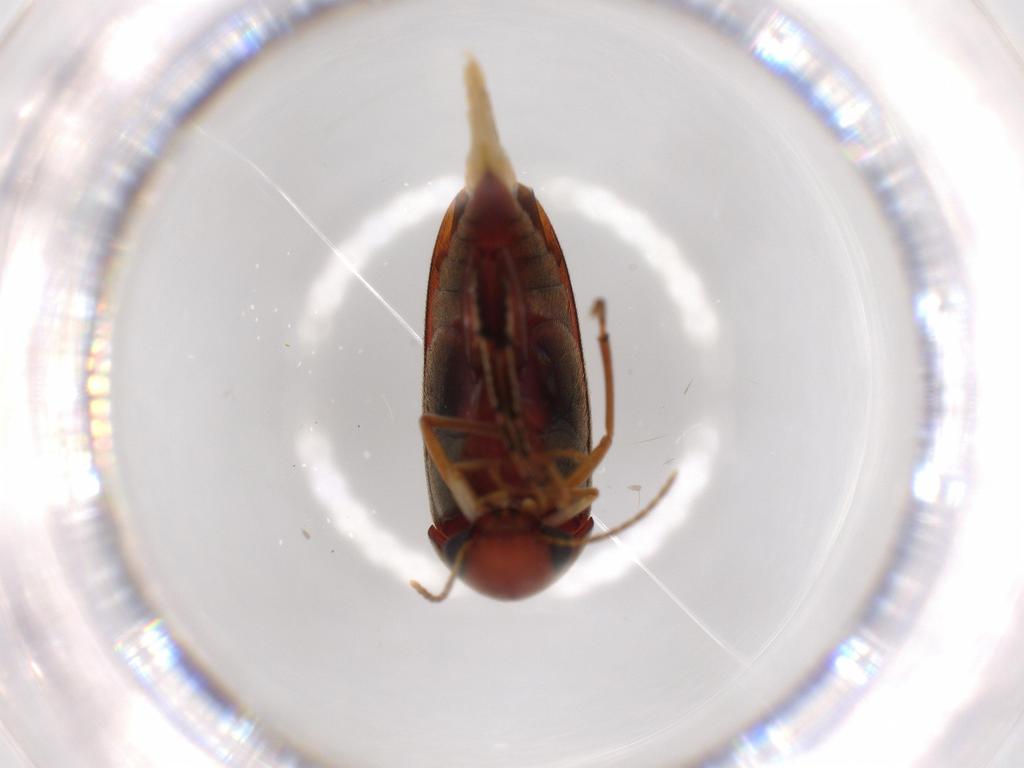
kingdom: Animalia
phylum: Arthropoda
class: Insecta
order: Coleoptera
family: Mordellidae
